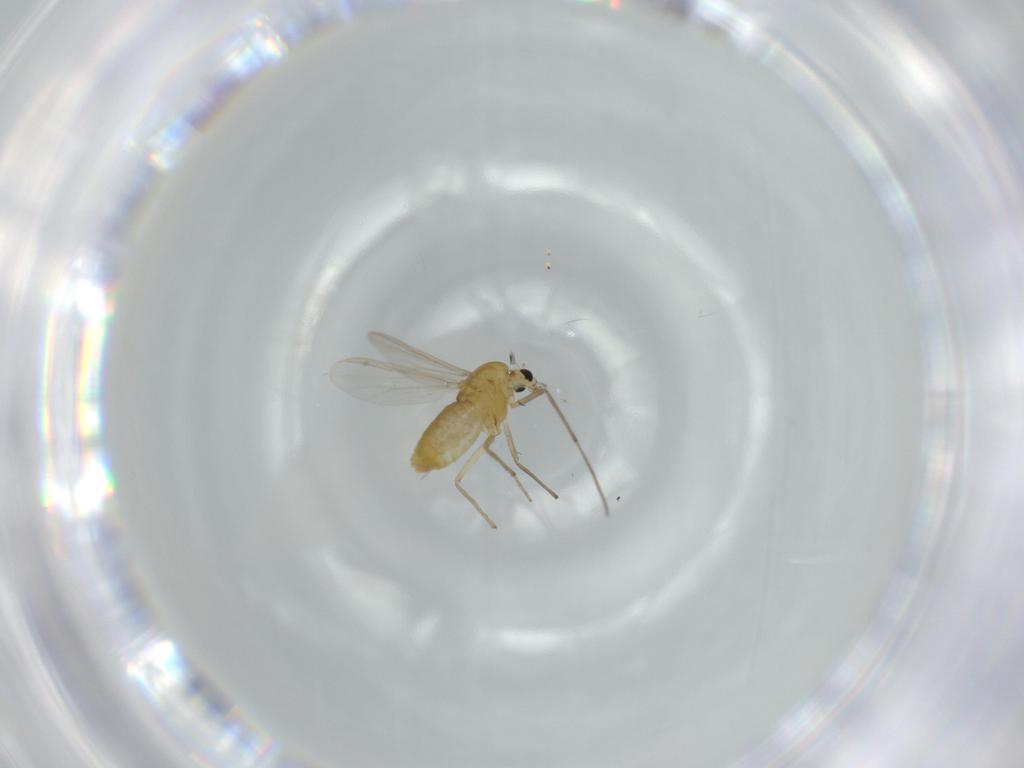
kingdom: Animalia
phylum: Arthropoda
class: Insecta
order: Diptera
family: Chironomidae
